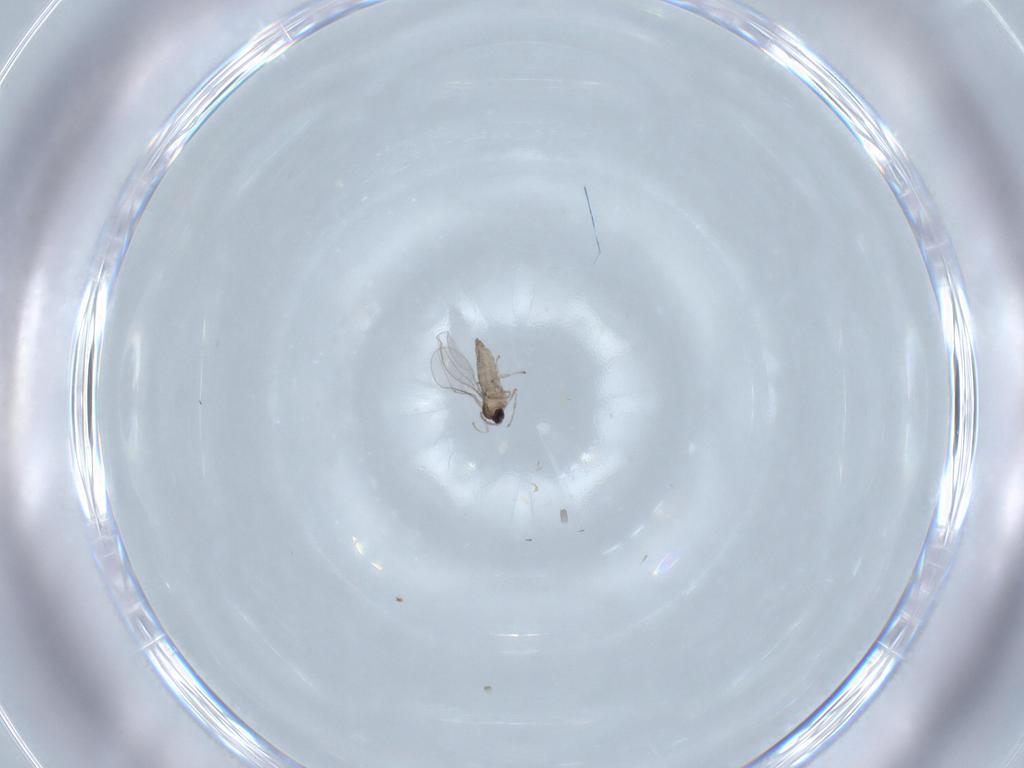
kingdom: Animalia
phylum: Arthropoda
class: Insecta
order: Diptera
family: Cecidomyiidae
